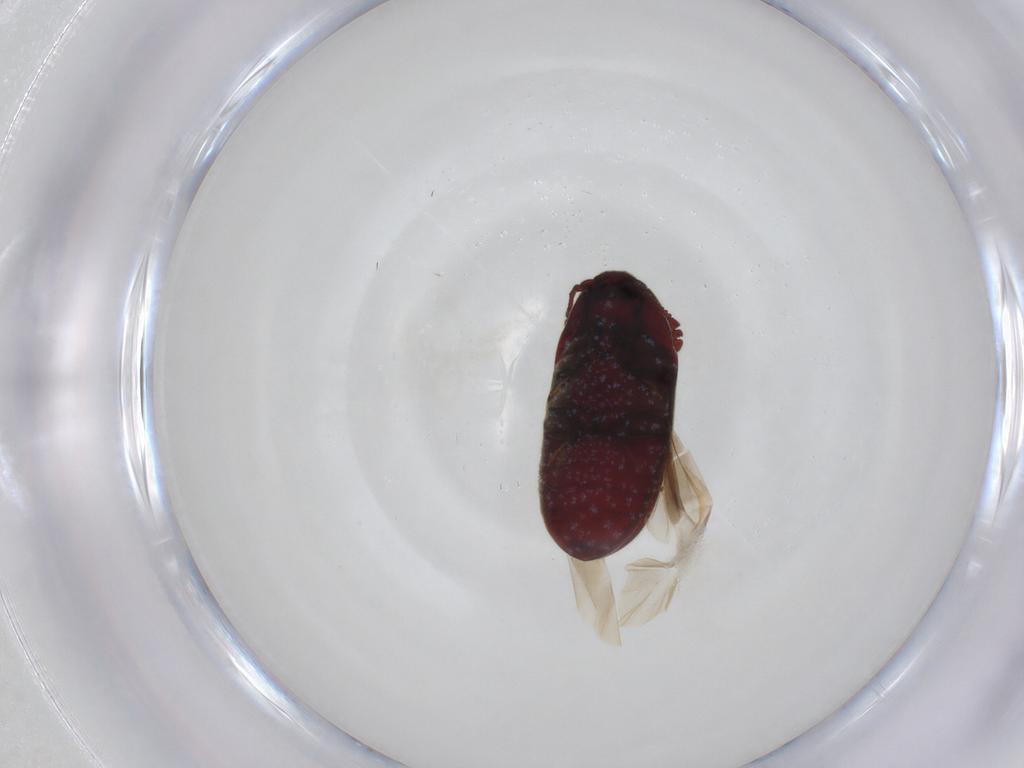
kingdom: Animalia
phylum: Arthropoda
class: Insecta
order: Coleoptera
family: Throscidae
